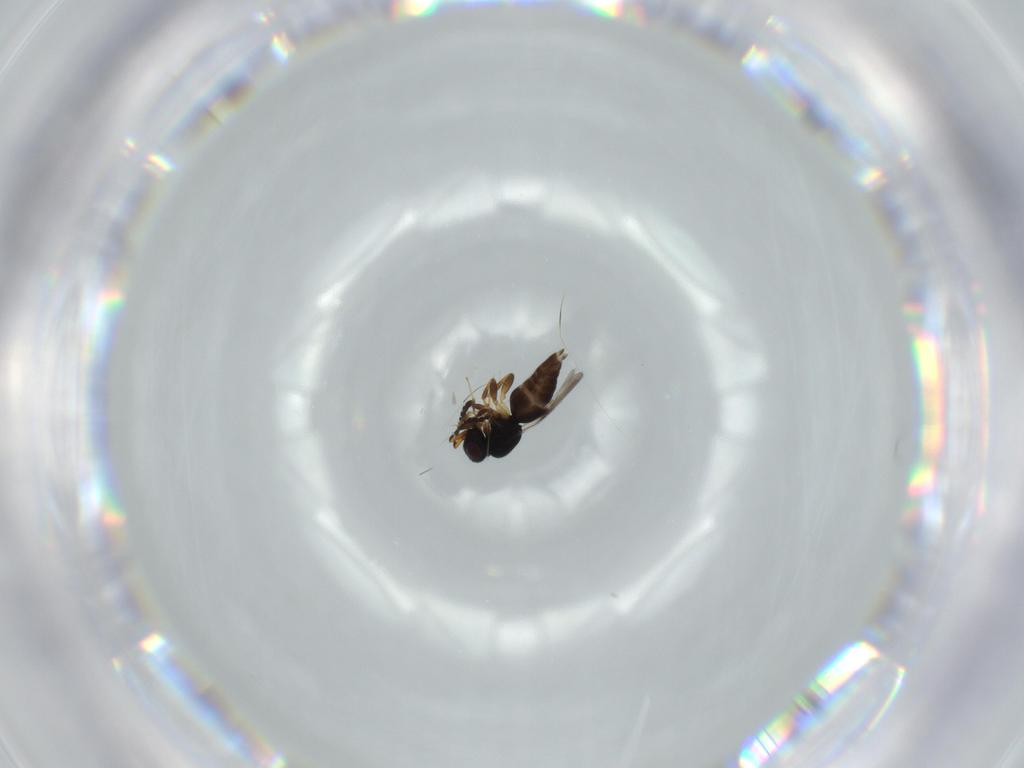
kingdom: Animalia
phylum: Arthropoda
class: Insecta
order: Hymenoptera
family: Ceraphronidae
